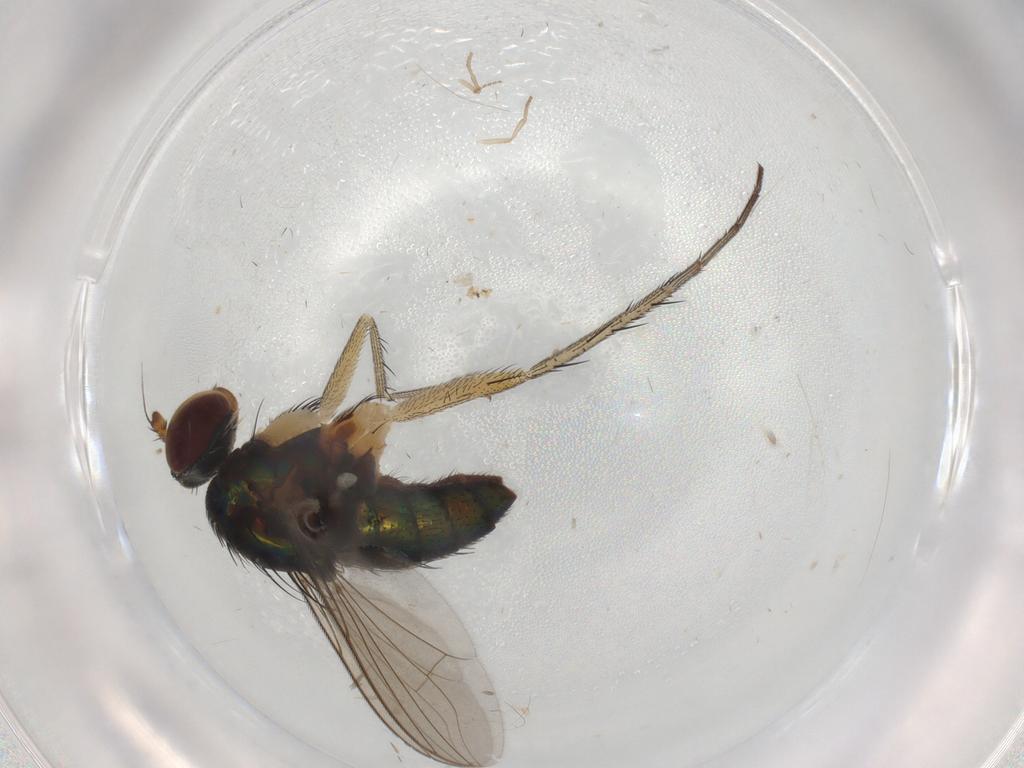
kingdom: Animalia
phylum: Arthropoda
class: Insecta
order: Diptera
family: Dolichopodidae
